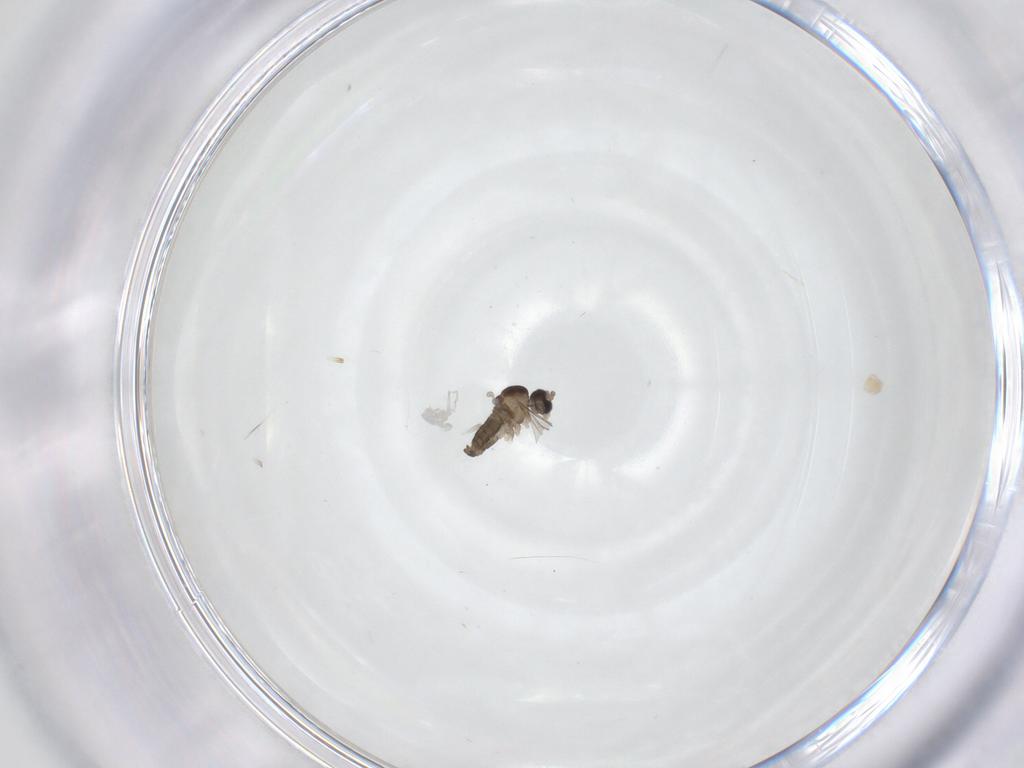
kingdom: Animalia
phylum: Arthropoda
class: Insecta
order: Diptera
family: Cecidomyiidae
